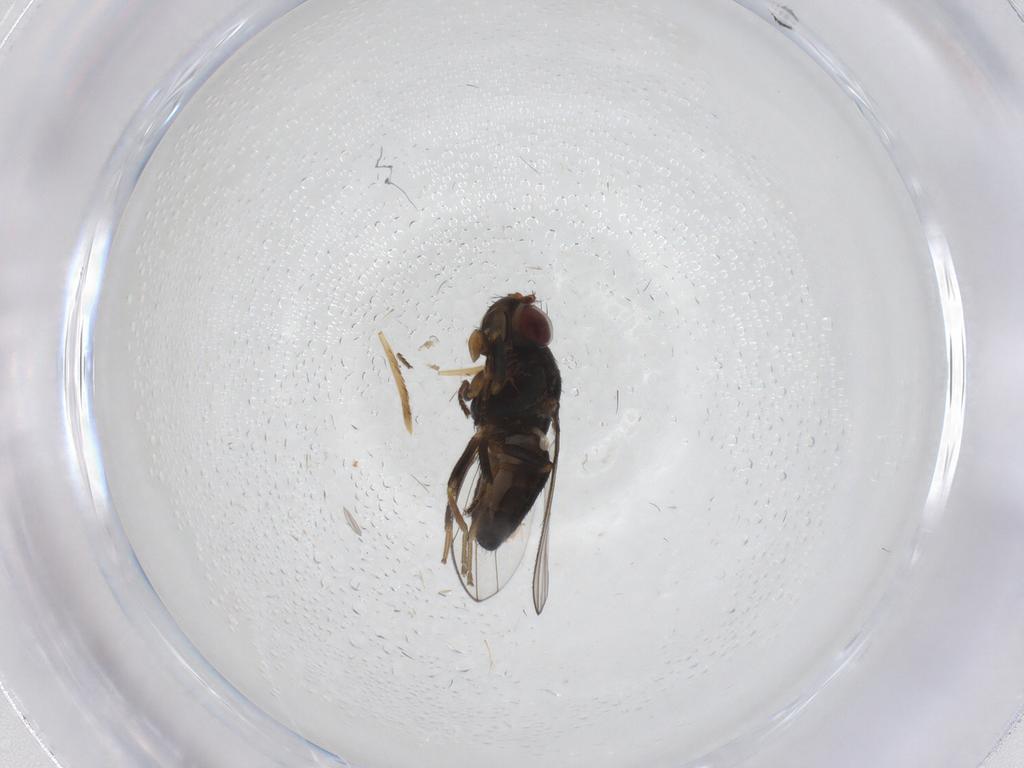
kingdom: Animalia
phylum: Arthropoda
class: Insecta
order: Diptera
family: Ephydridae
